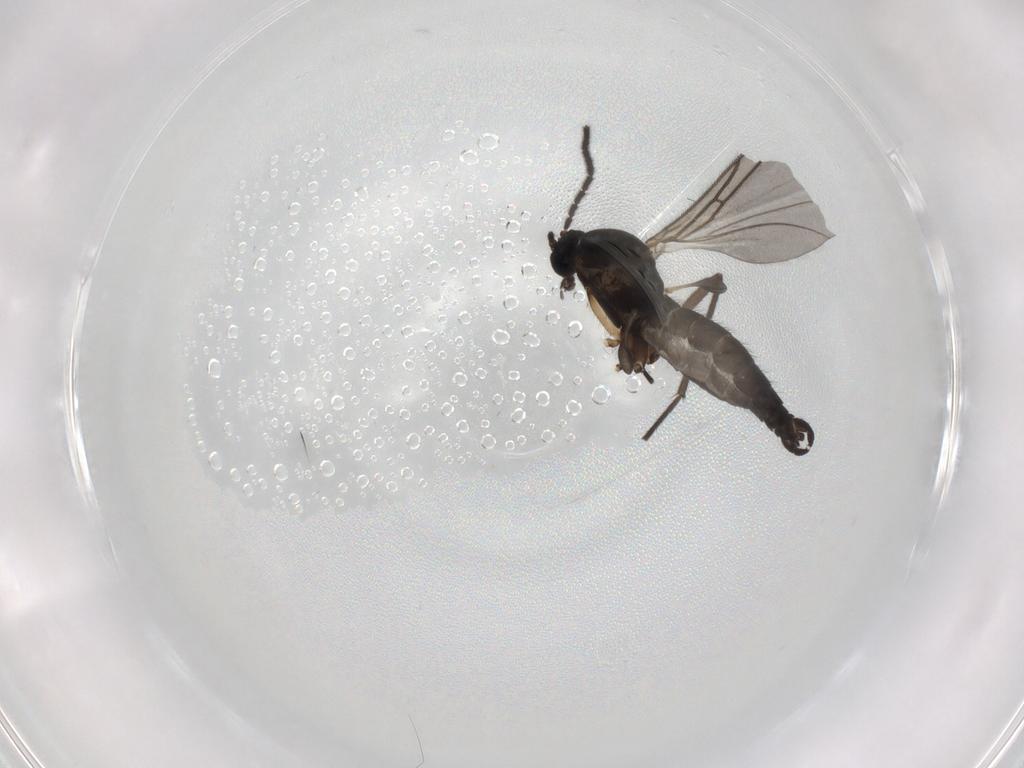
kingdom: Animalia
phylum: Arthropoda
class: Insecta
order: Diptera
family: Sciaridae
